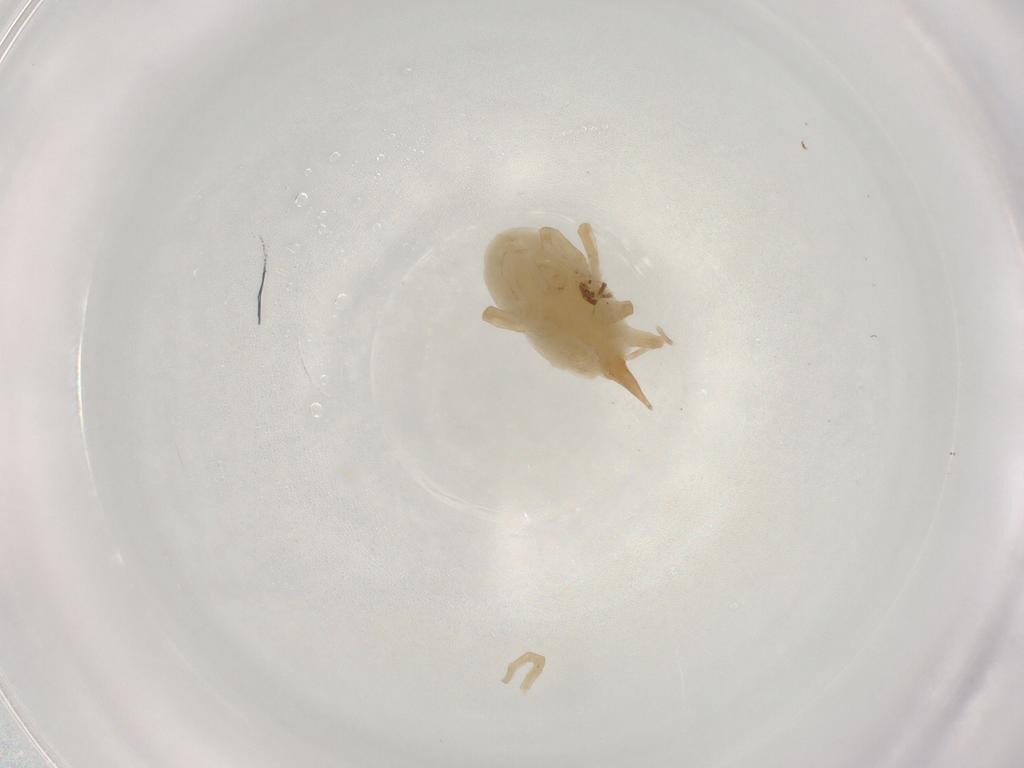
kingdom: Animalia
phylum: Arthropoda
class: Arachnida
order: Trombidiformes
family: Bdellidae
